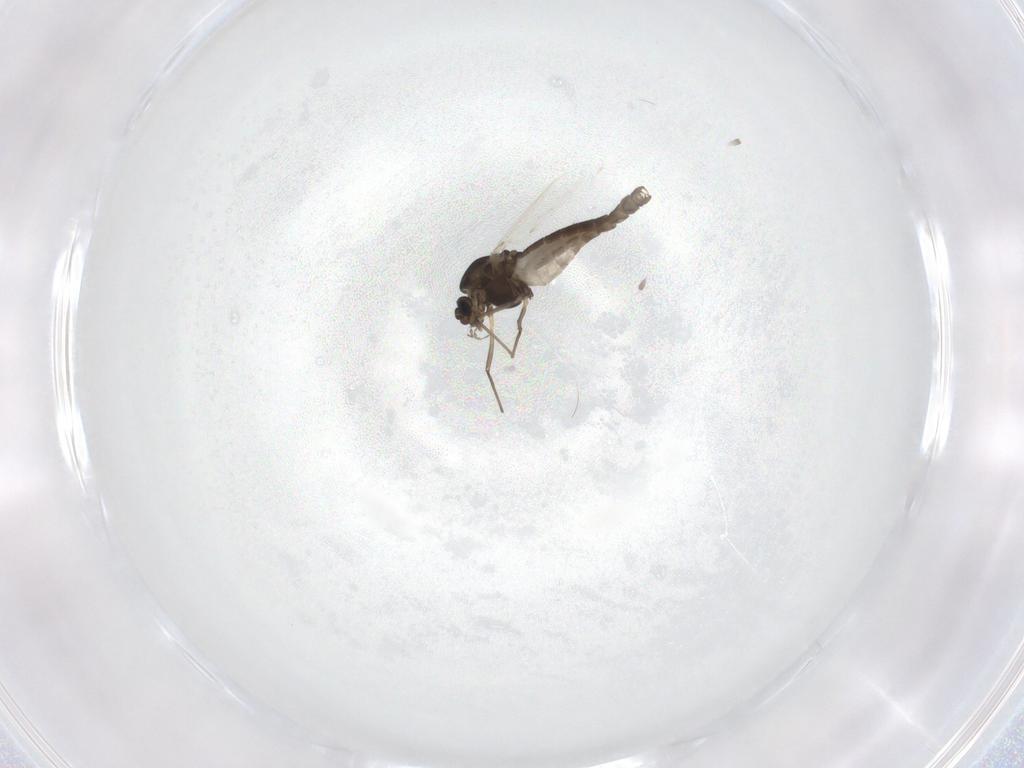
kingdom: Animalia
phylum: Arthropoda
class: Insecta
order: Diptera
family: Chironomidae
